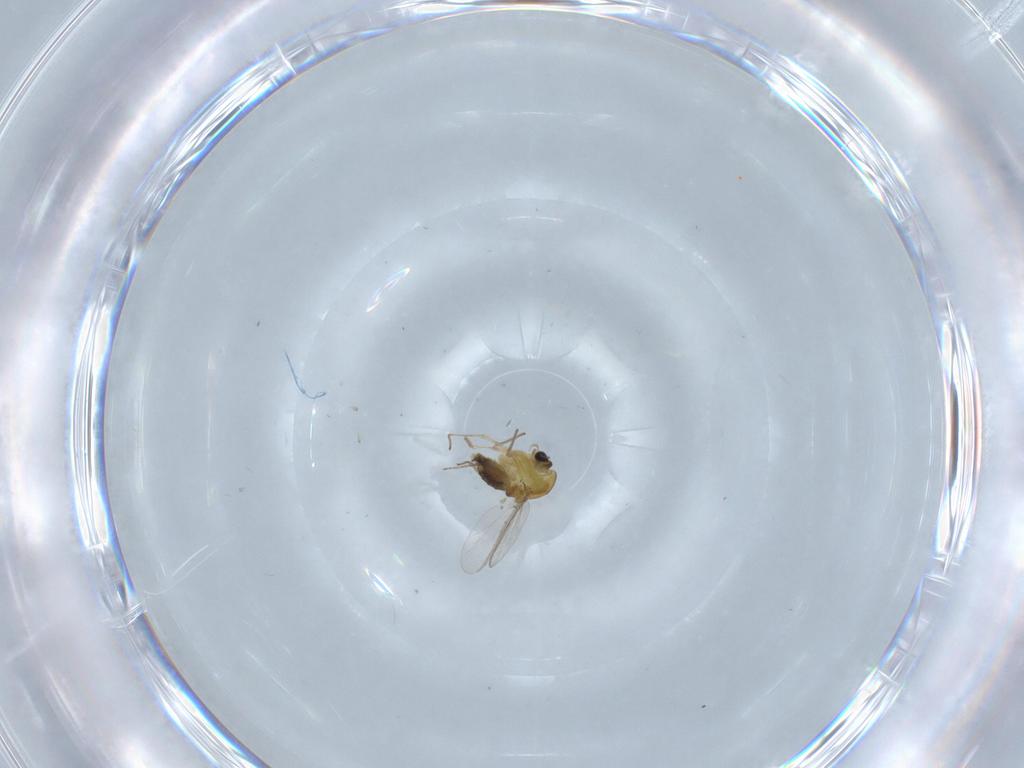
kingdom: Animalia
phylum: Arthropoda
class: Insecta
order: Diptera
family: Chironomidae
